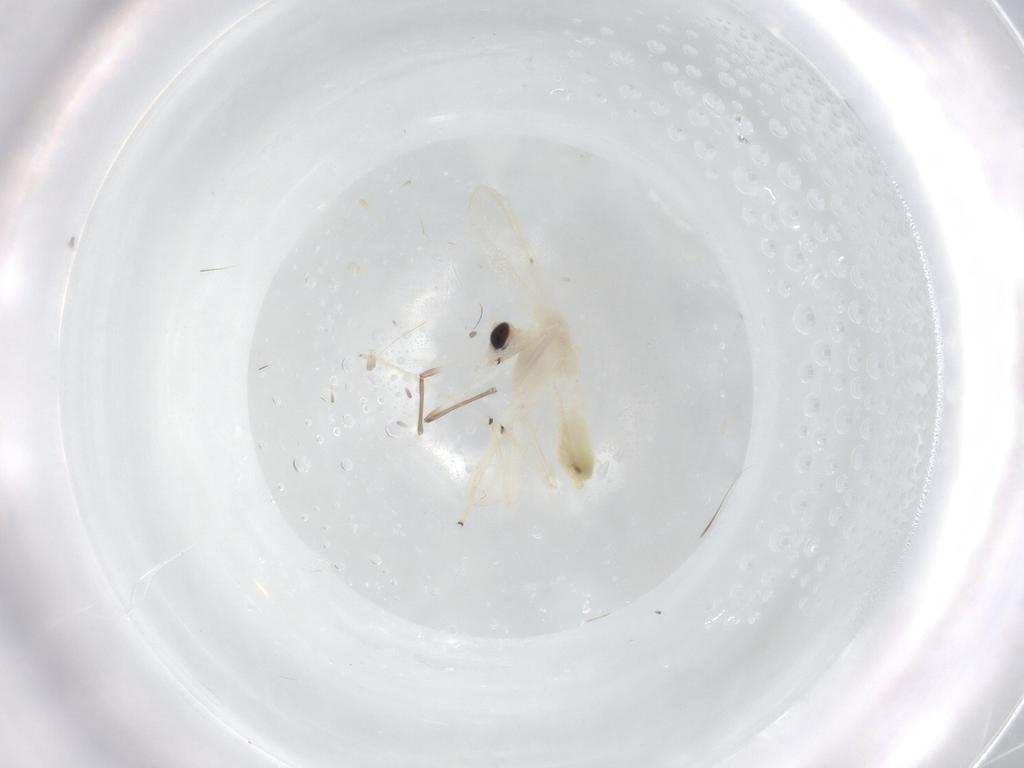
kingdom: Animalia
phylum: Arthropoda
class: Insecta
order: Diptera
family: Chironomidae
